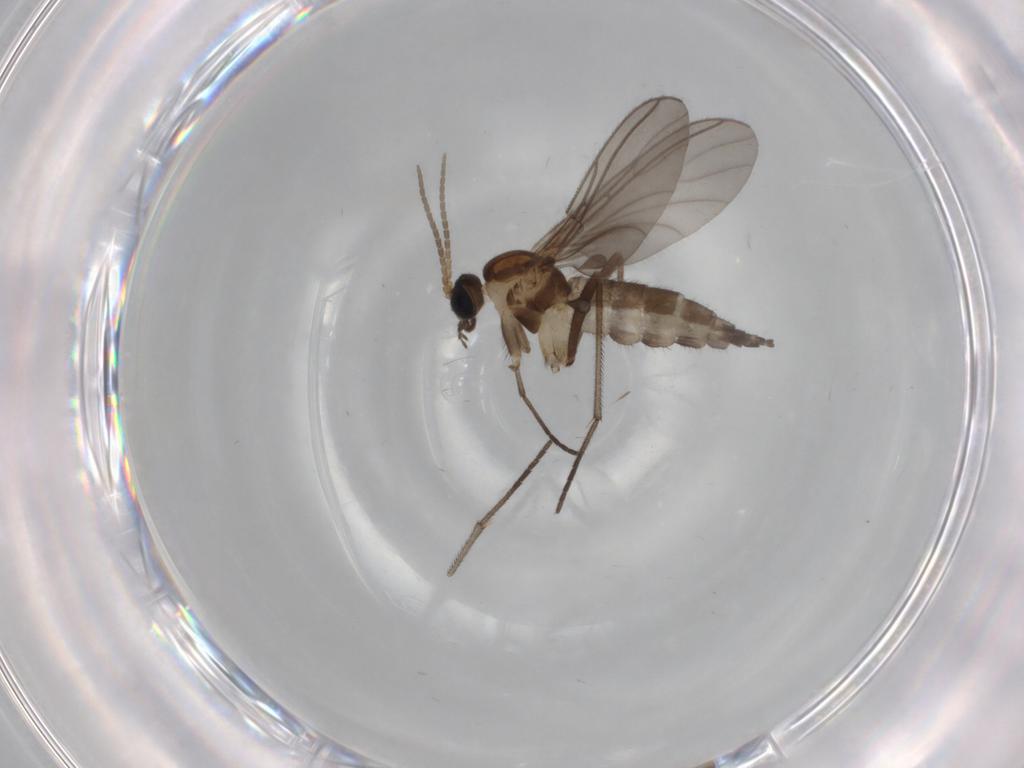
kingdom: Animalia
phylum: Arthropoda
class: Insecta
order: Diptera
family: Sciaridae
